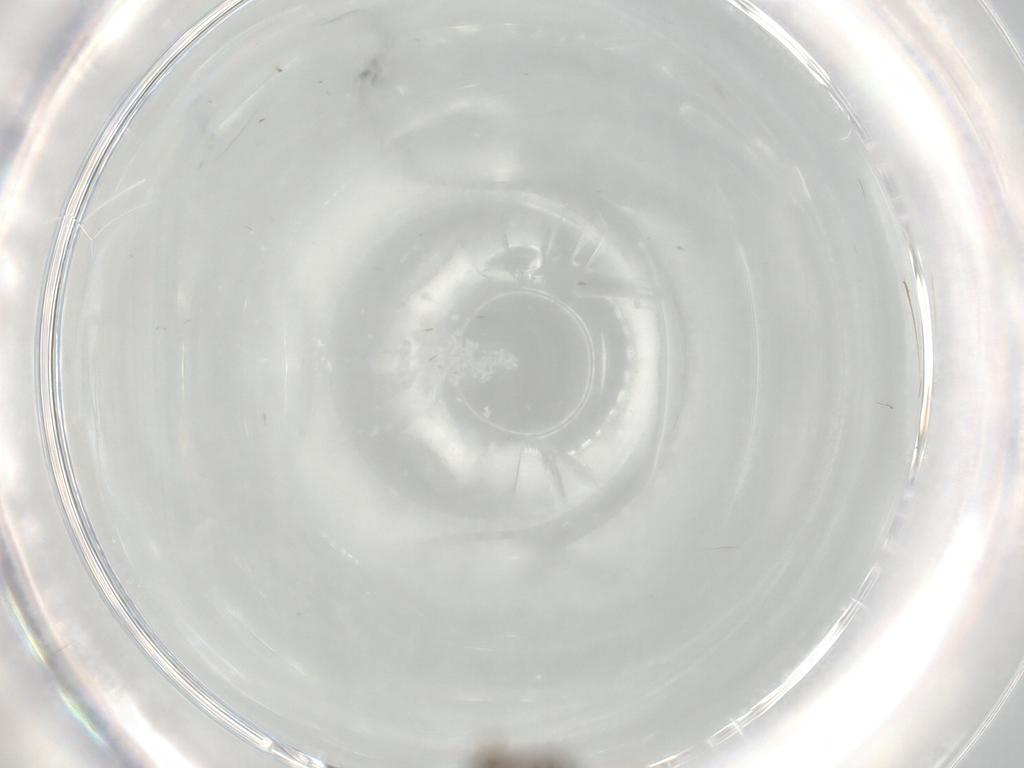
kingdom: Animalia
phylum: Arthropoda
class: Insecta
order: Diptera
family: Phoridae
